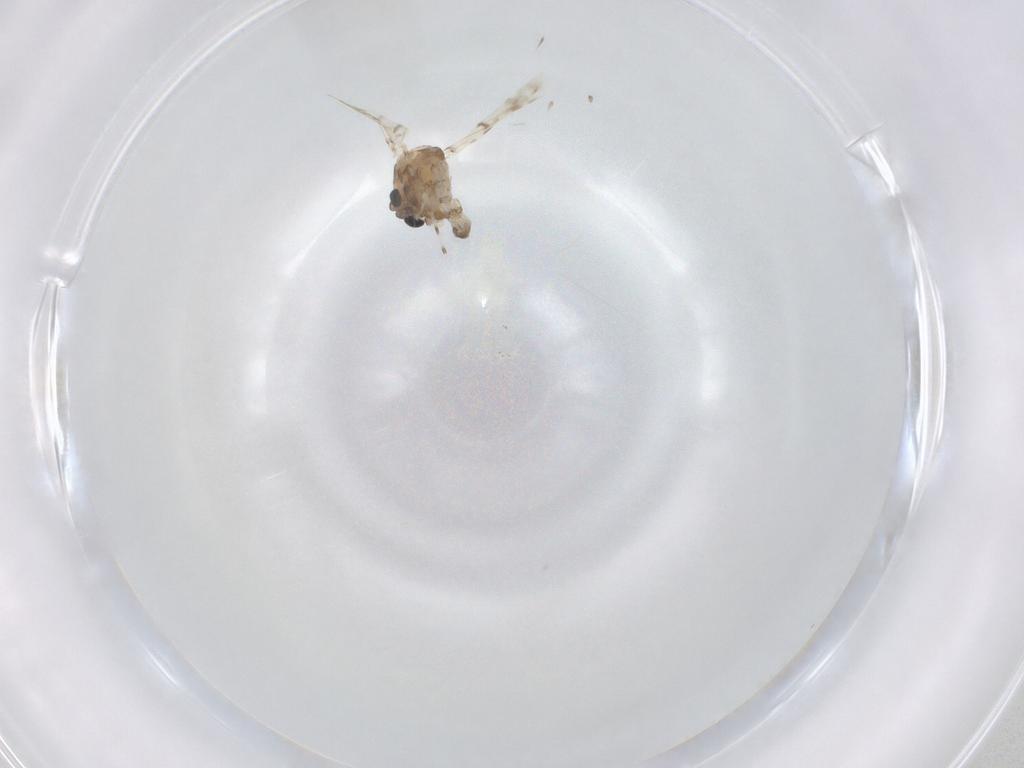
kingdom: Animalia
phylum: Arthropoda
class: Insecta
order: Diptera
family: Chironomidae
